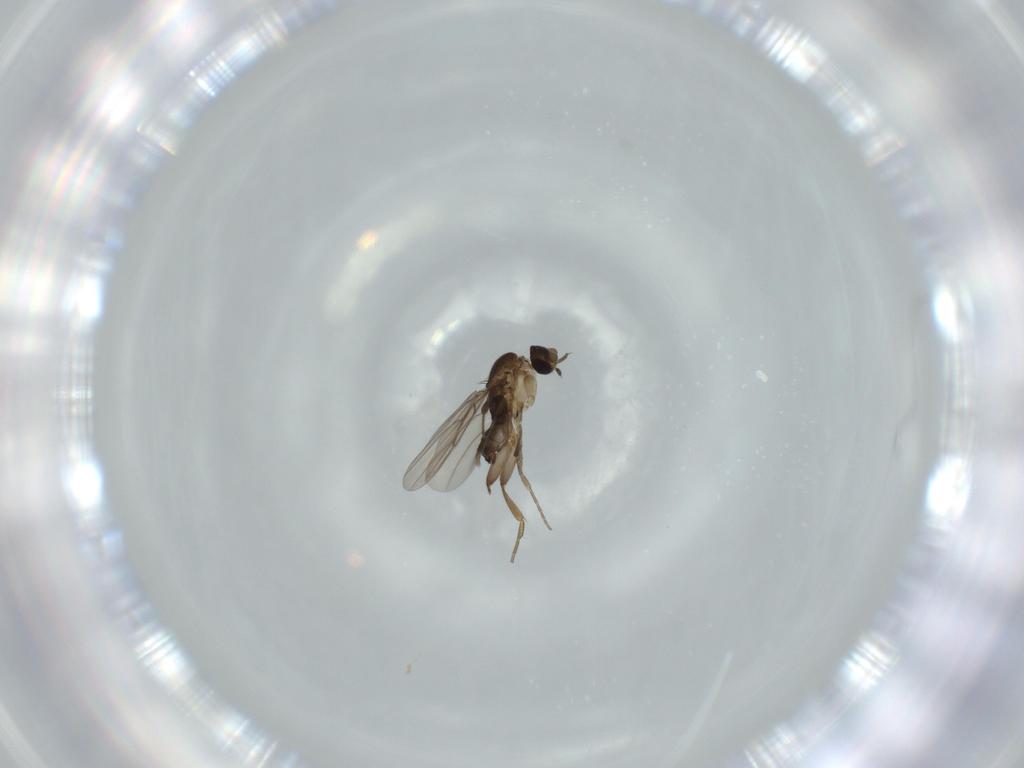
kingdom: Animalia
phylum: Arthropoda
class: Insecta
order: Diptera
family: Phoridae
